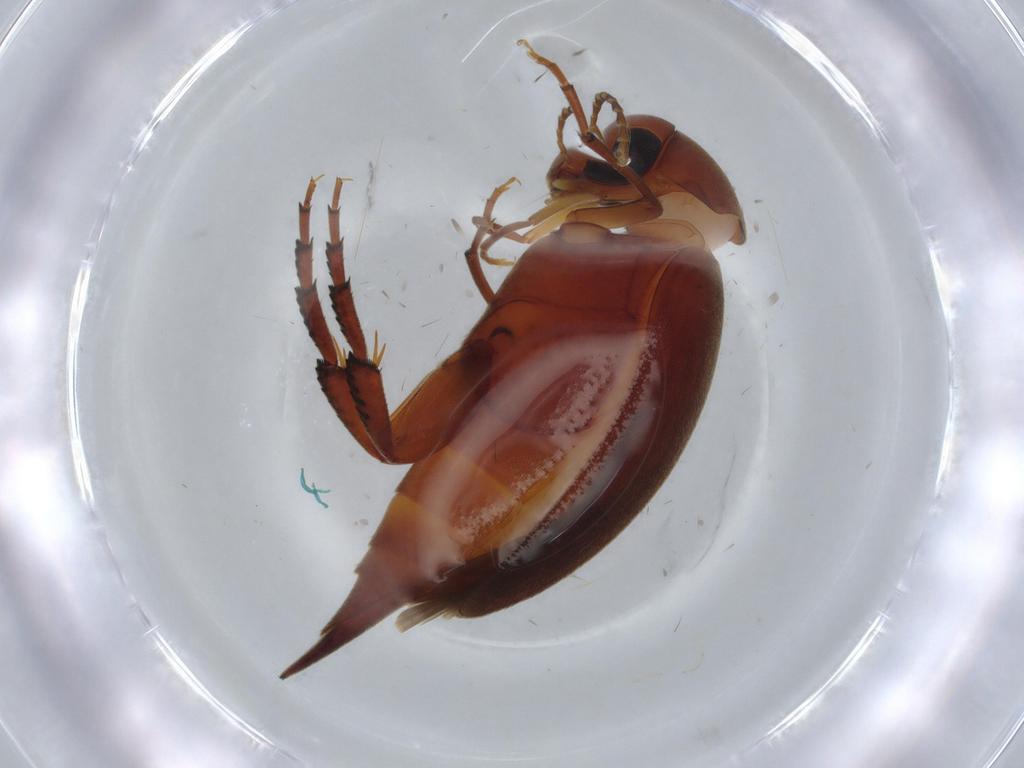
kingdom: Animalia
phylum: Arthropoda
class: Insecta
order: Coleoptera
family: Mordellidae
